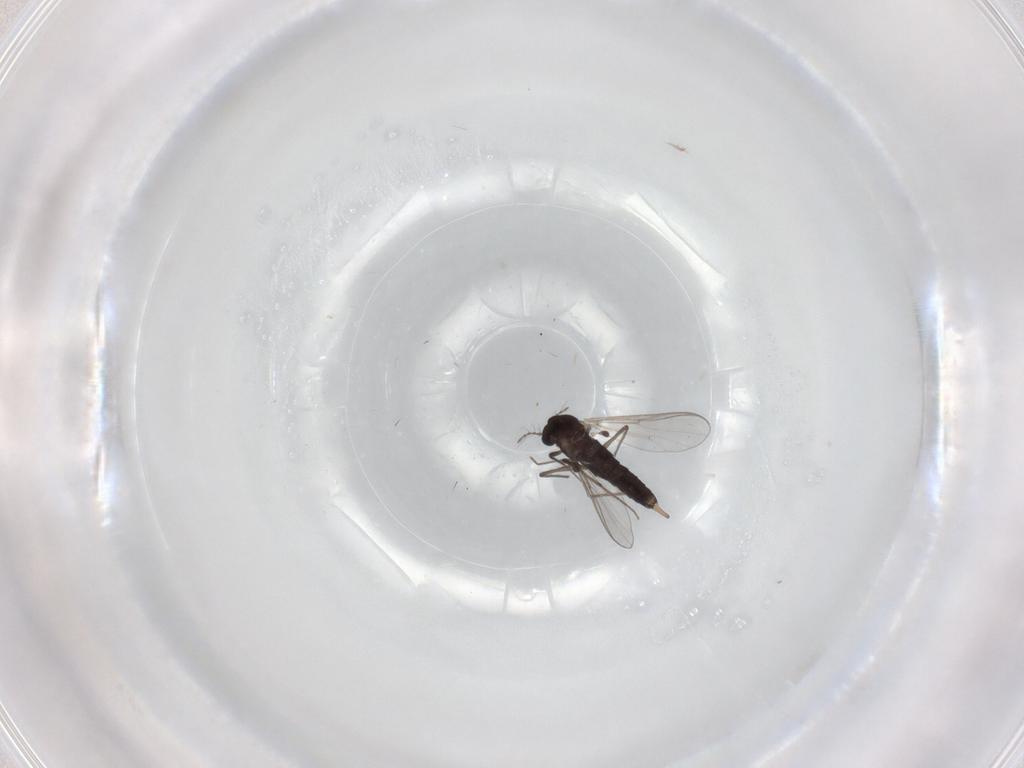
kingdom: Animalia
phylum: Arthropoda
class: Insecta
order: Diptera
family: Chironomidae
